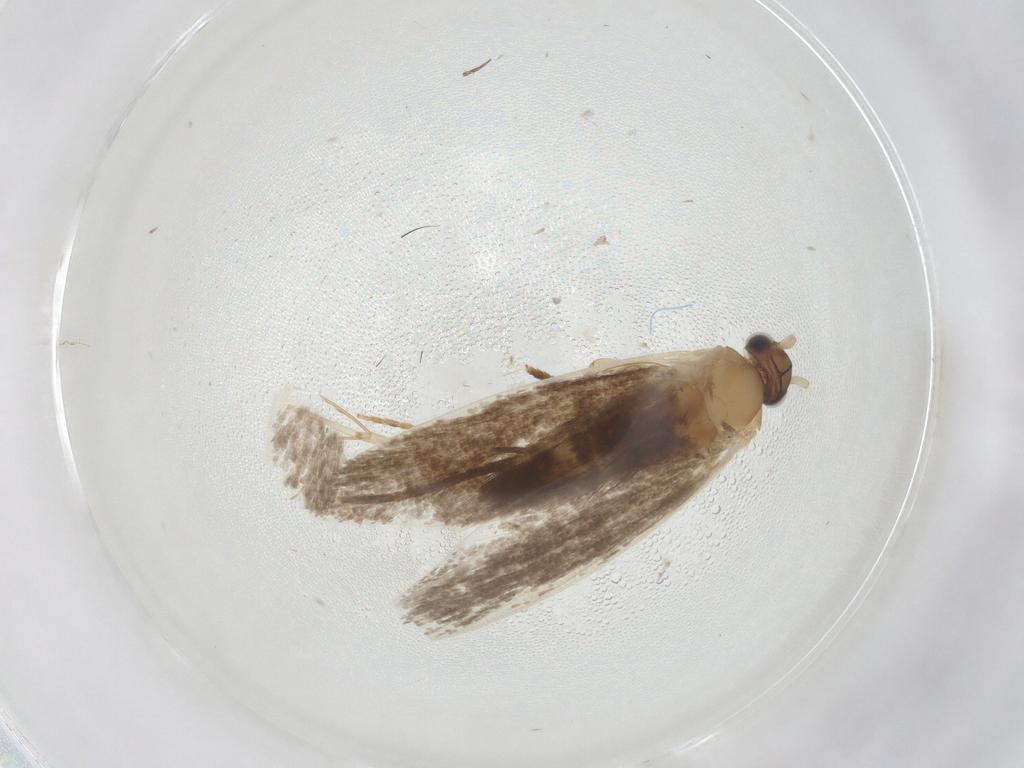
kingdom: Animalia
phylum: Arthropoda
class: Insecta
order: Lepidoptera
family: Tineidae
